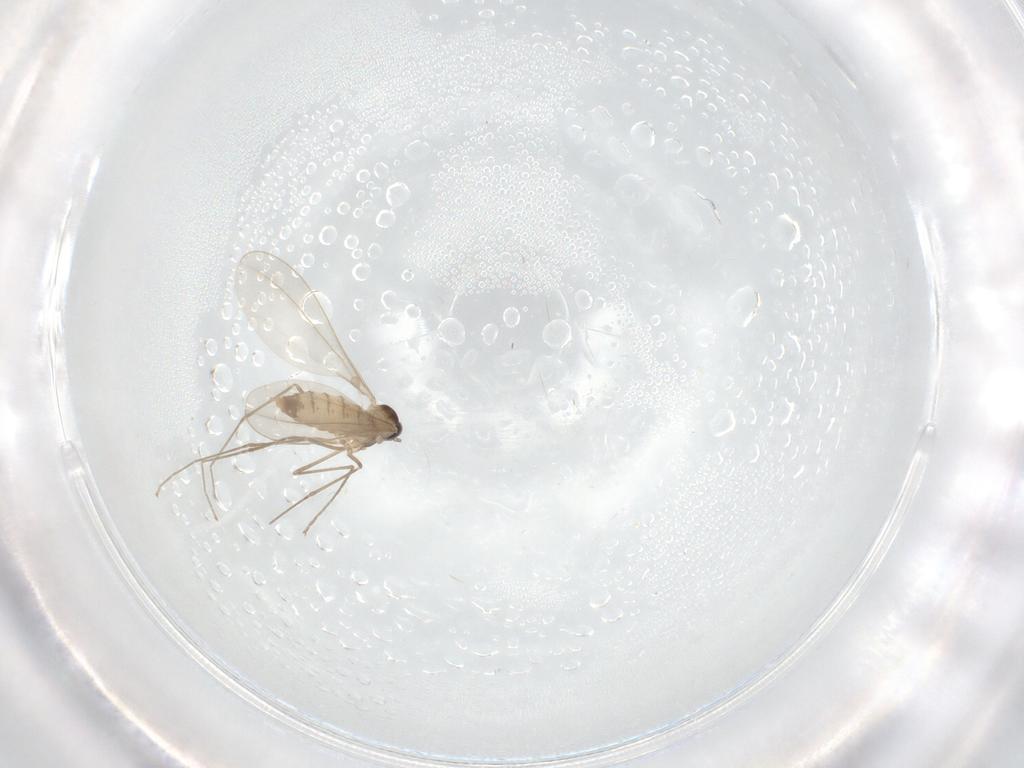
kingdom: Animalia
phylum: Arthropoda
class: Insecta
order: Diptera
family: Cecidomyiidae
